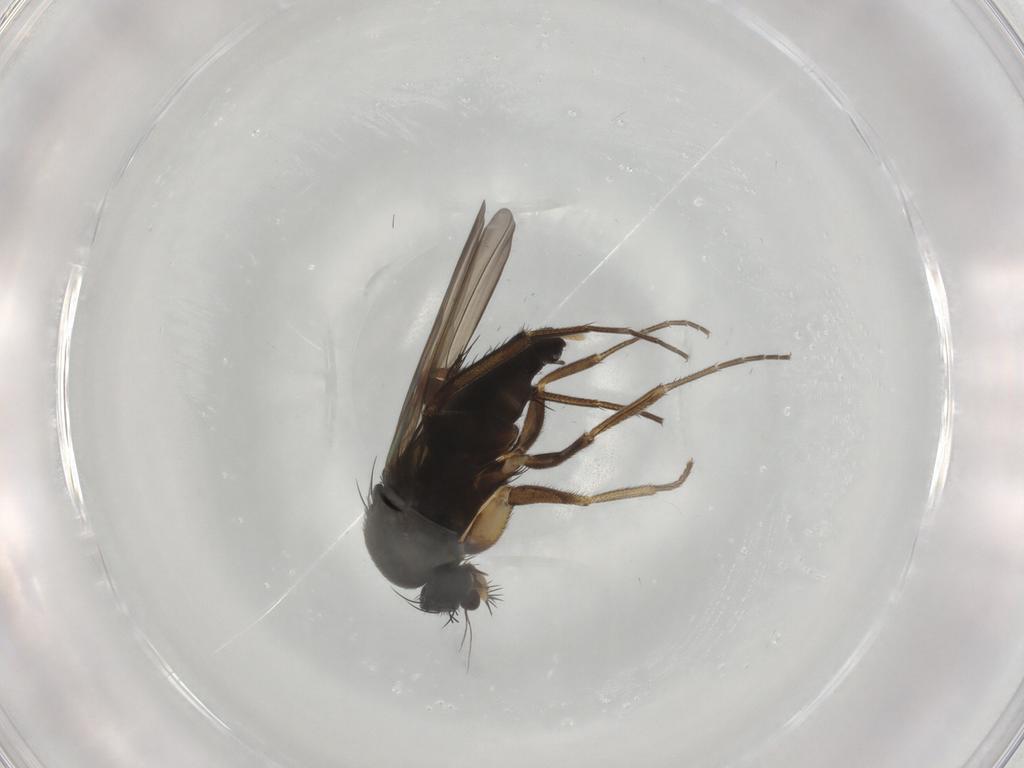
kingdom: Animalia
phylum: Arthropoda
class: Insecta
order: Diptera
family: Phoridae
